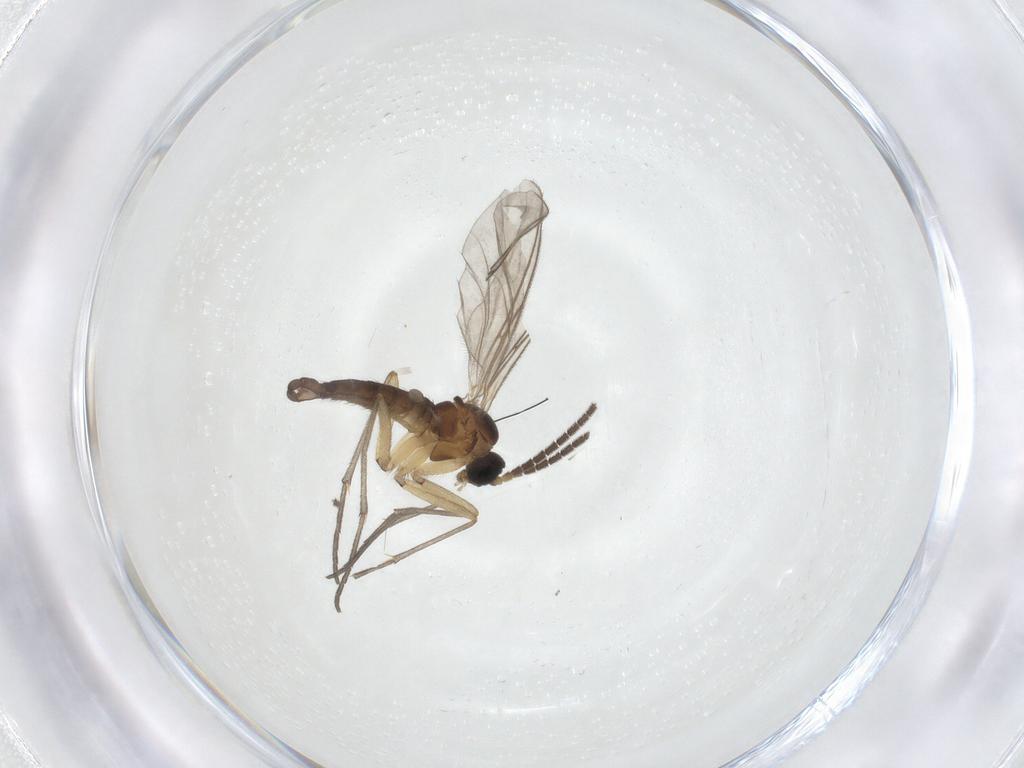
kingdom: Animalia
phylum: Arthropoda
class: Insecta
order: Diptera
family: Sciaridae
